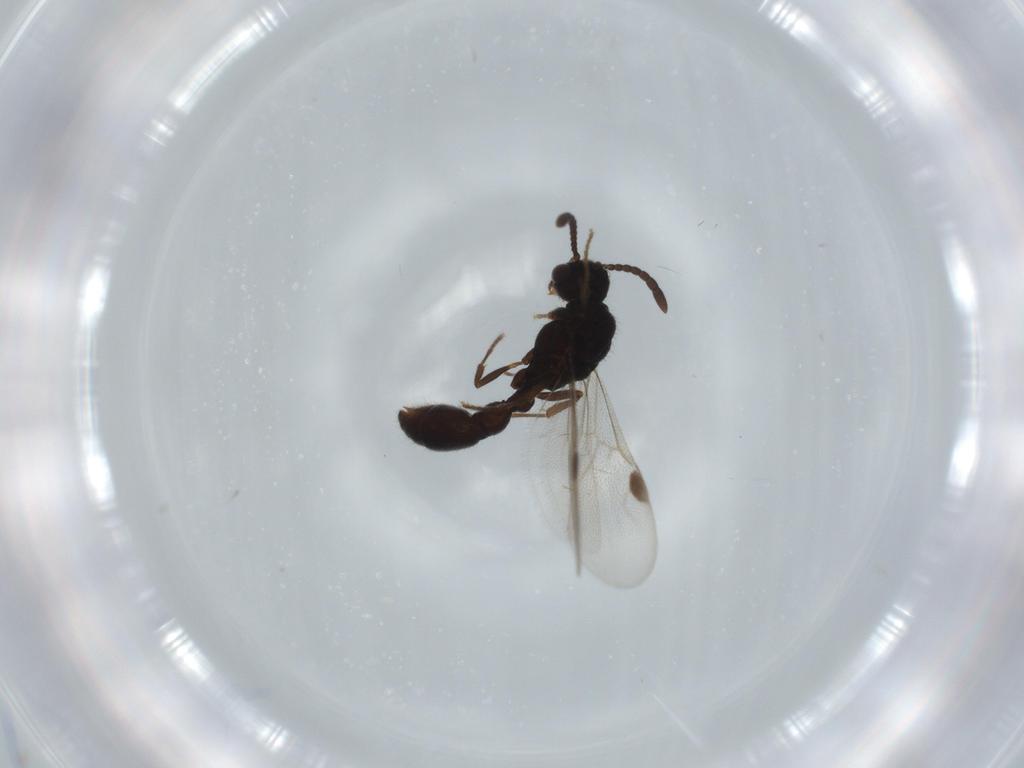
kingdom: Animalia
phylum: Arthropoda
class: Insecta
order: Hymenoptera
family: Formicidae
